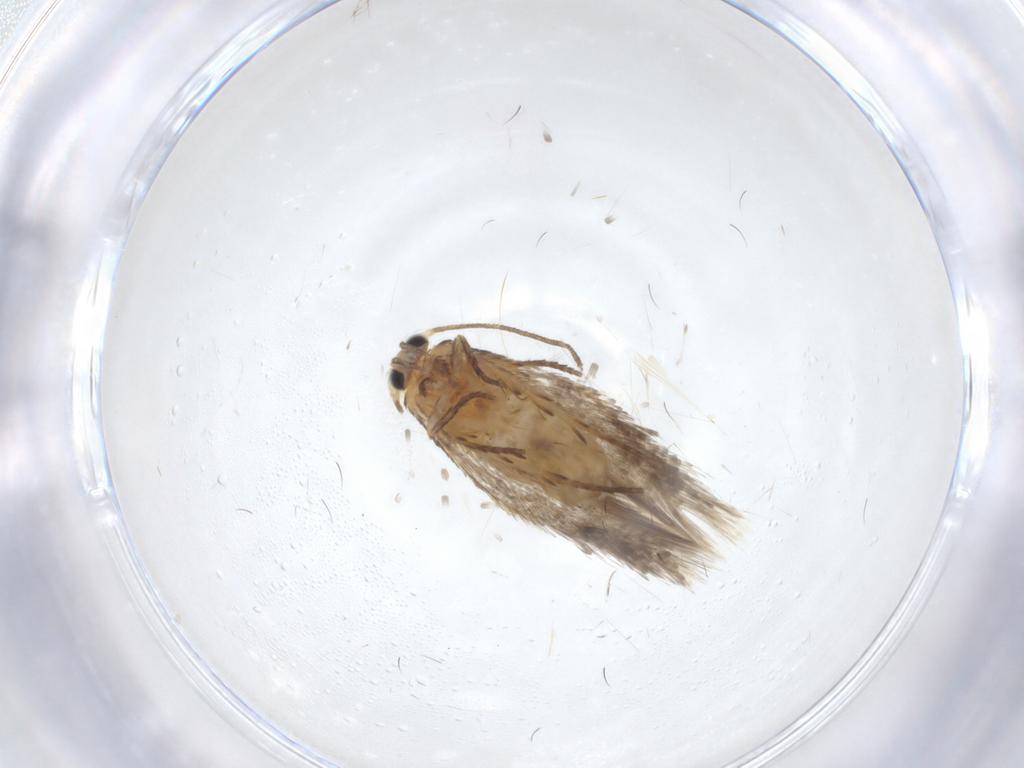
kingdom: Animalia
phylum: Arthropoda
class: Insecta
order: Lepidoptera
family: Nepticulidae
